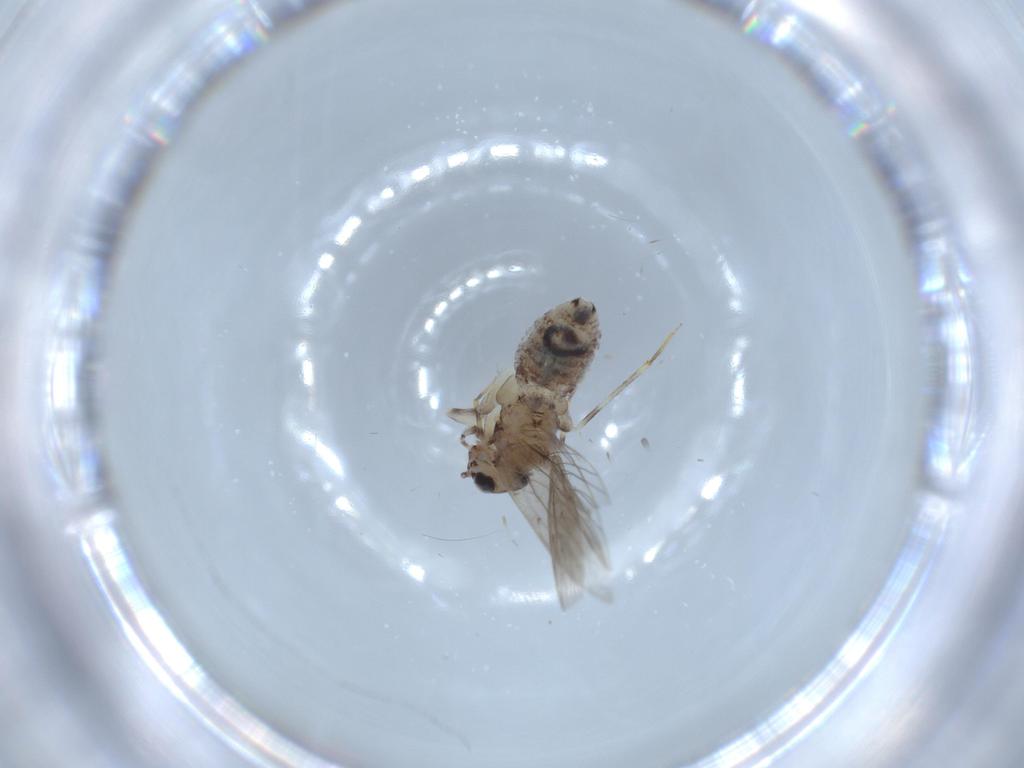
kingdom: Animalia
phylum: Arthropoda
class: Insecta
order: Psocodea
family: Lepidopsocidae
